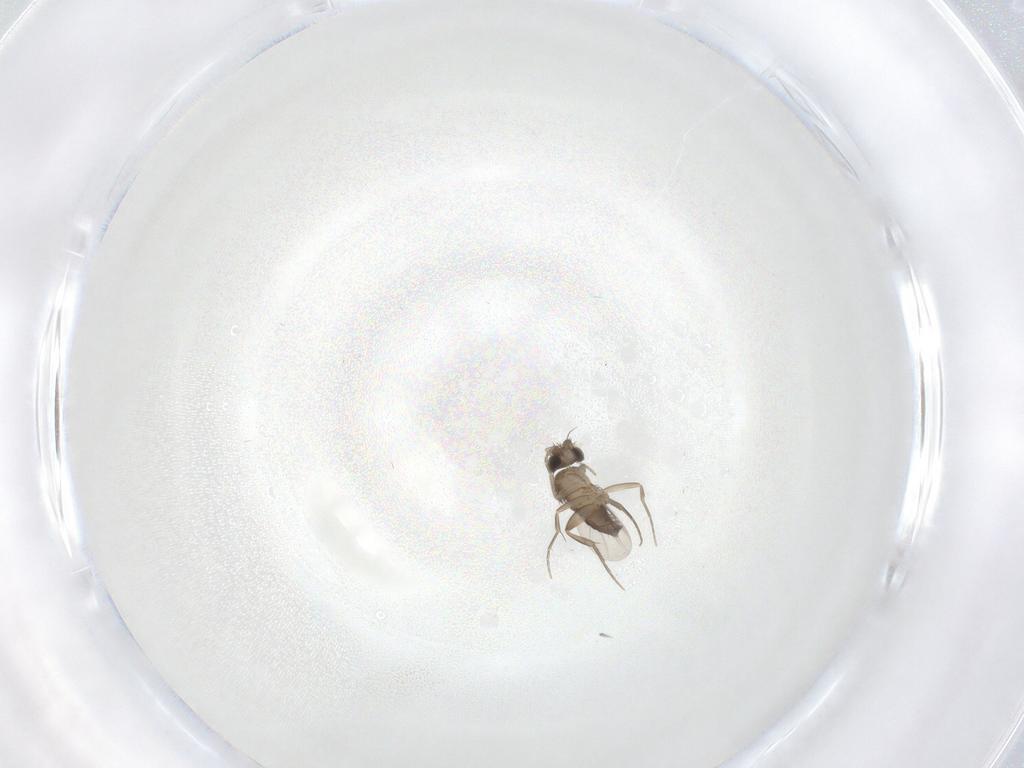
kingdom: Animalia
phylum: Arthropoda
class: Insecta
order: Diptera
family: Phoridae
